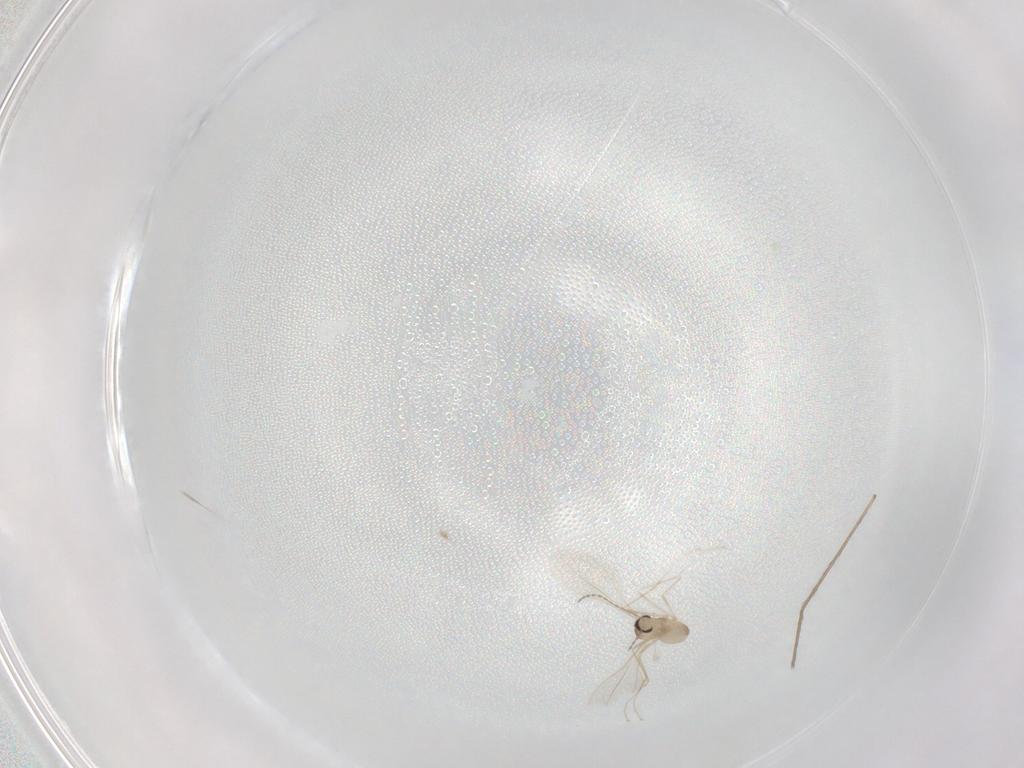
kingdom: Animalia
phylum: Arthropoda
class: Insecta
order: Diptera
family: Cecidomyiidae
